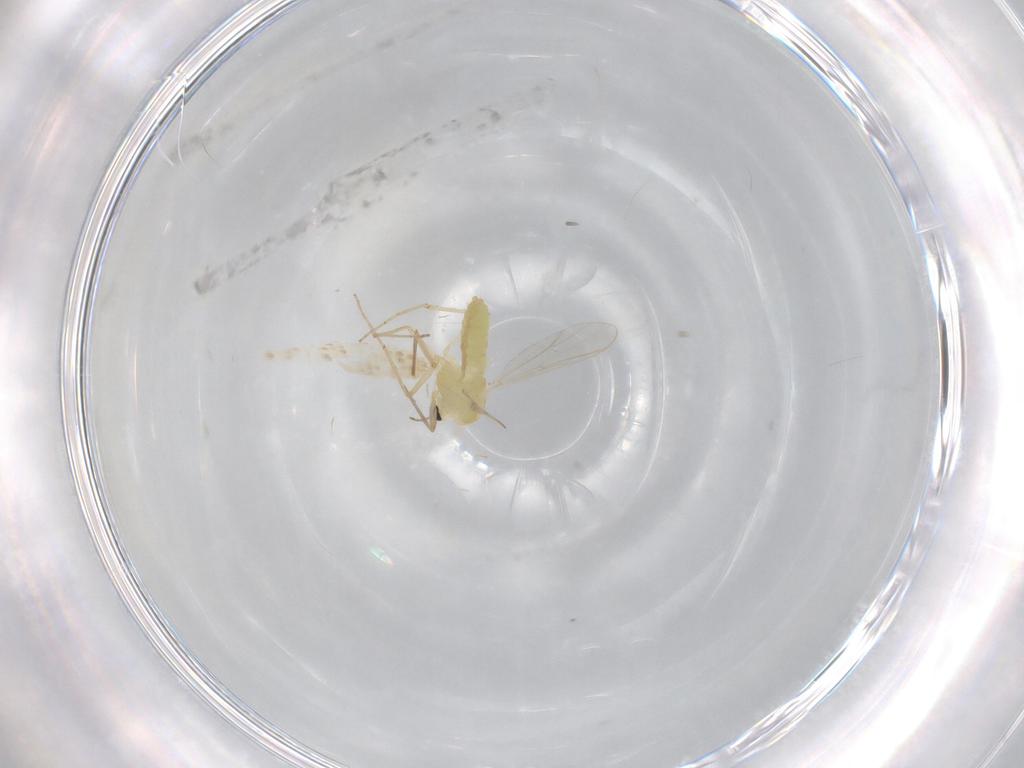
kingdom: Animalia
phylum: Arthropoda
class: Insecta
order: Diptera
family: Chironomidae
